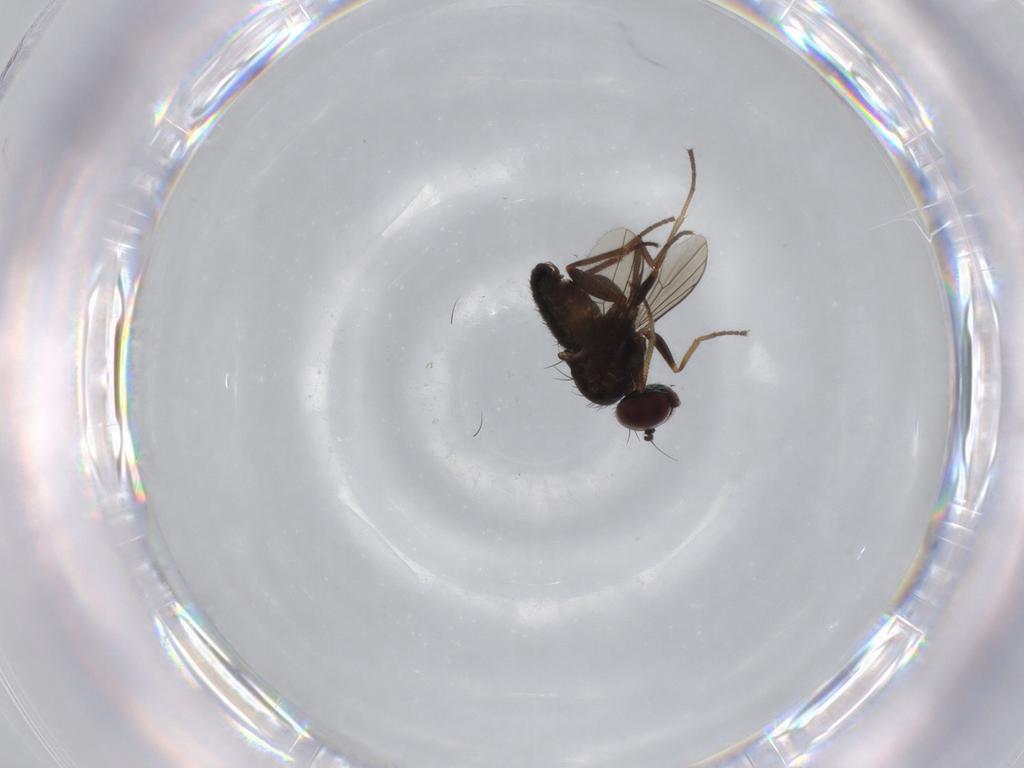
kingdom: Animalia
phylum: Arthropoda
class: Insecta
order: Diptera
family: Dolichopodidae
